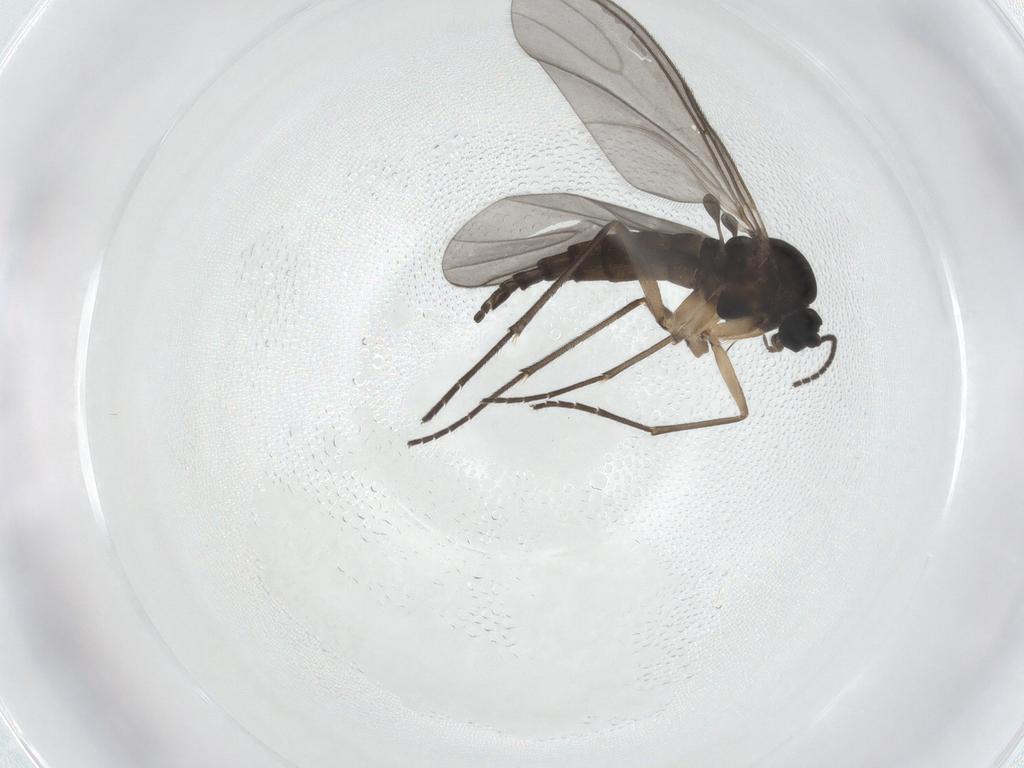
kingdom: Animalia
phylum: Arthropoda
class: Insecta
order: Diptera
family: Sciaridae
